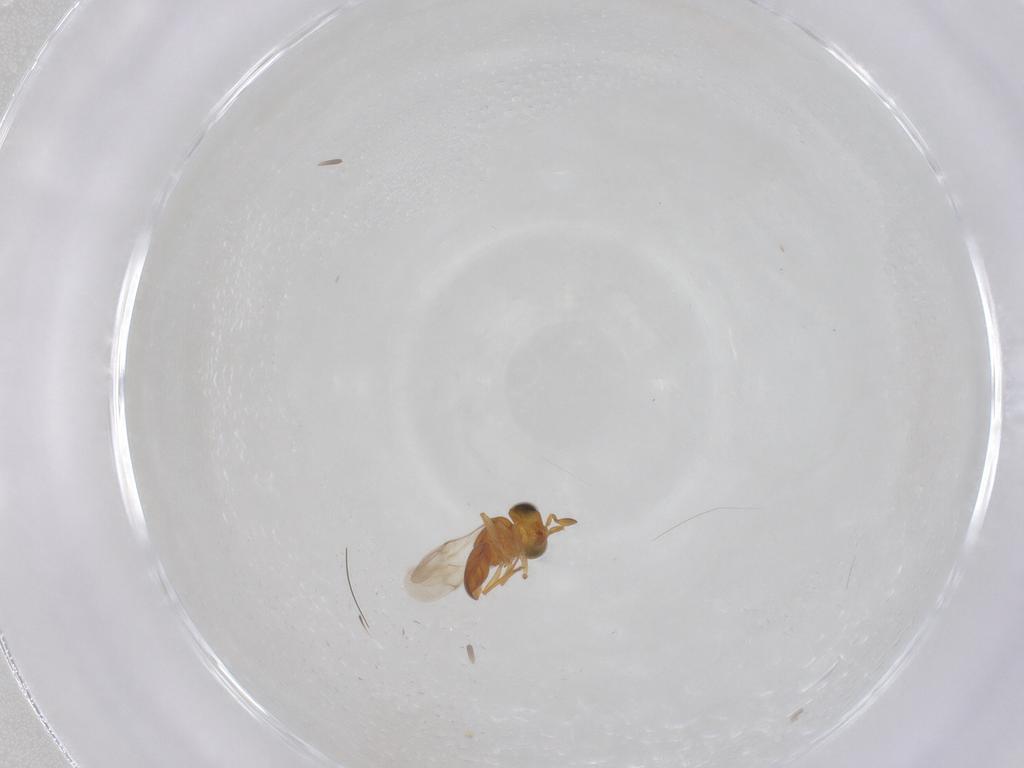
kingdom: Animalia
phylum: Arthropoda
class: Insecta
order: Hymenoptera
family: Scelionidae
